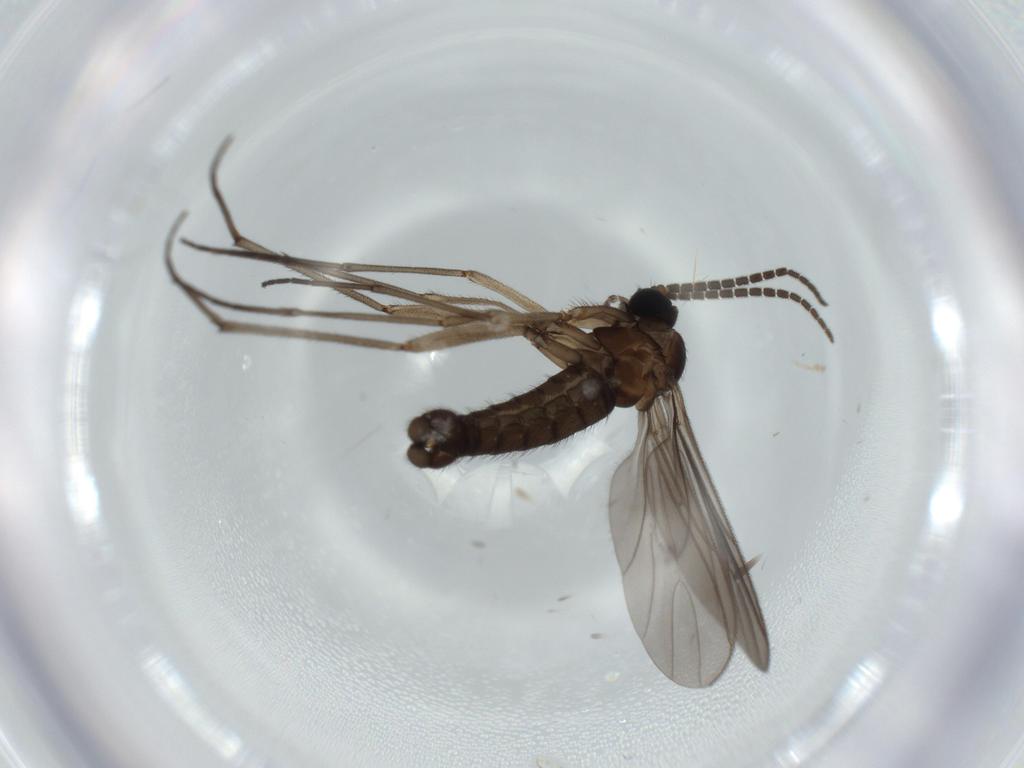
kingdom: Animalia
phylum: Arthropoda
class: Insecta
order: Diptera
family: Sciaridae
